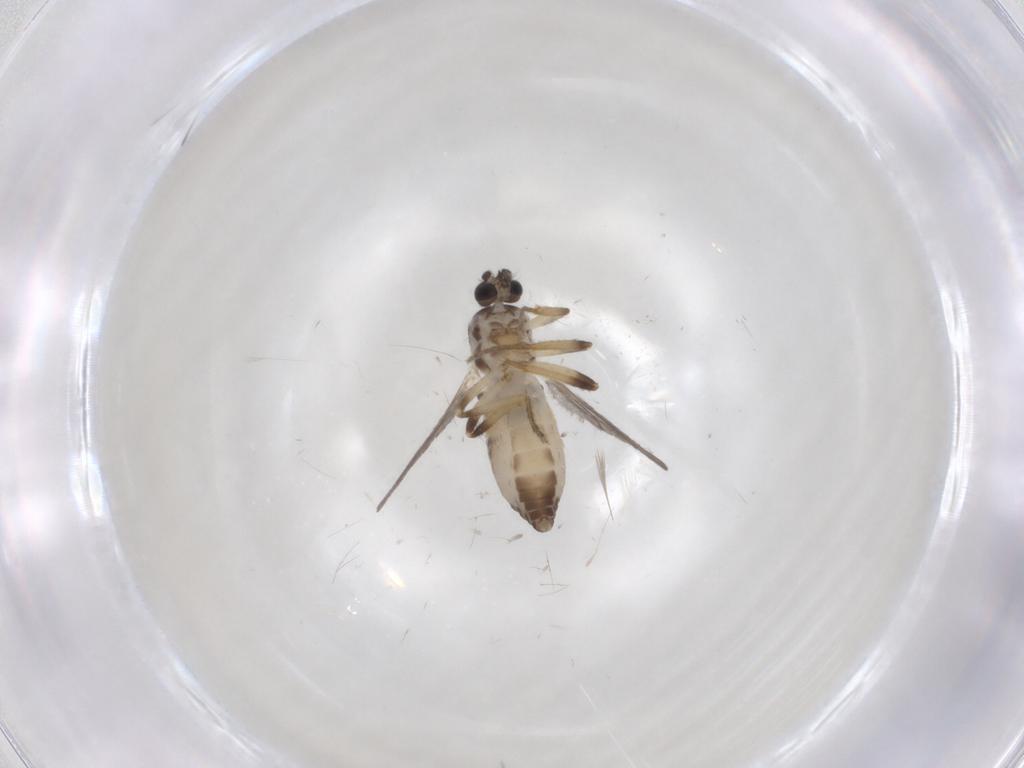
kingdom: Animalia
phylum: Arthropoda
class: Insecta
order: Diptera
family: Ceratopogonidae
